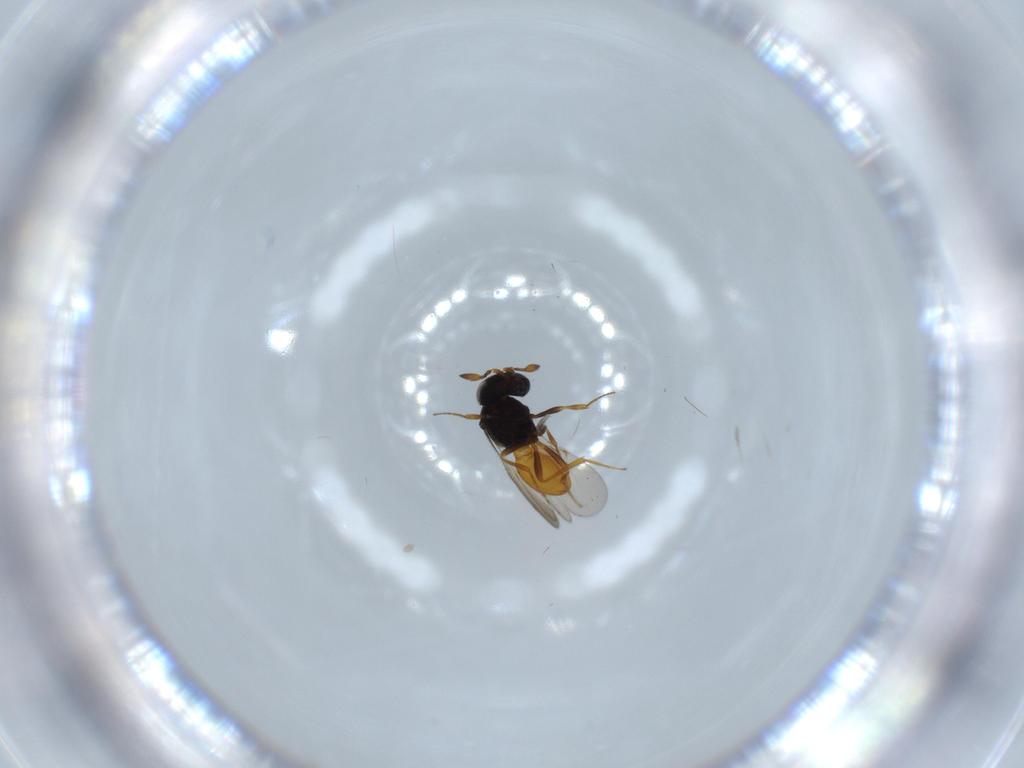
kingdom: Animalia
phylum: Arthropoda
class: Insecta
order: Hymenoptera
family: Scelionidae
